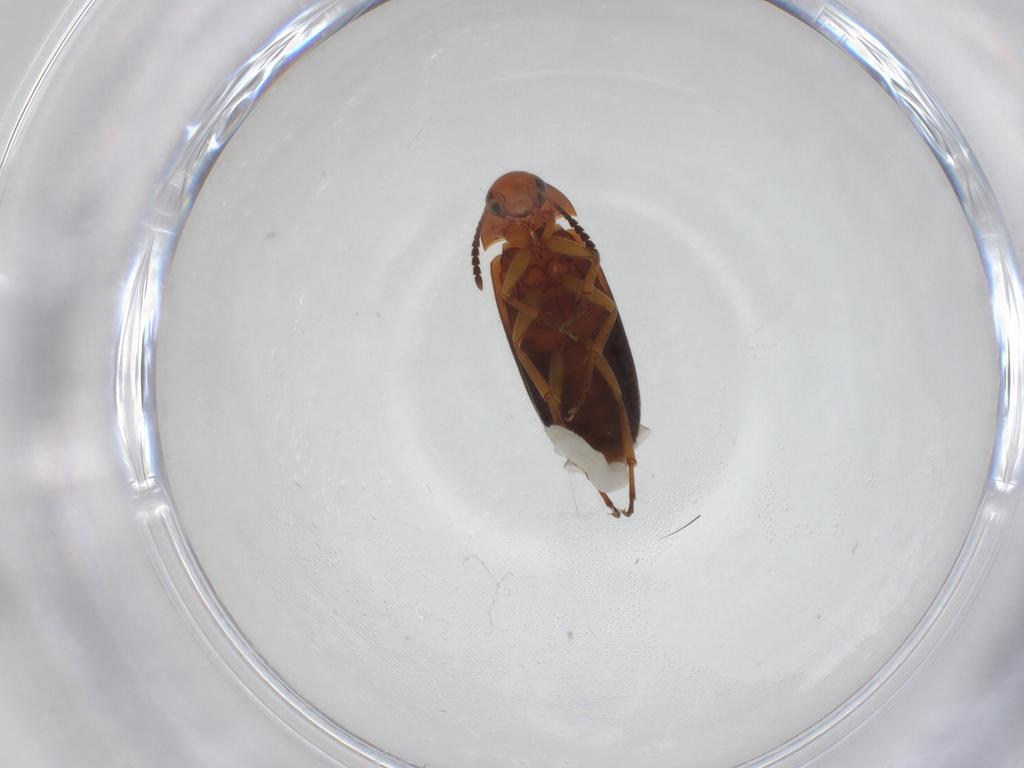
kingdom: Animalia
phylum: Arthropoda
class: Insecta
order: Coleoptera
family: Scraptiidae
